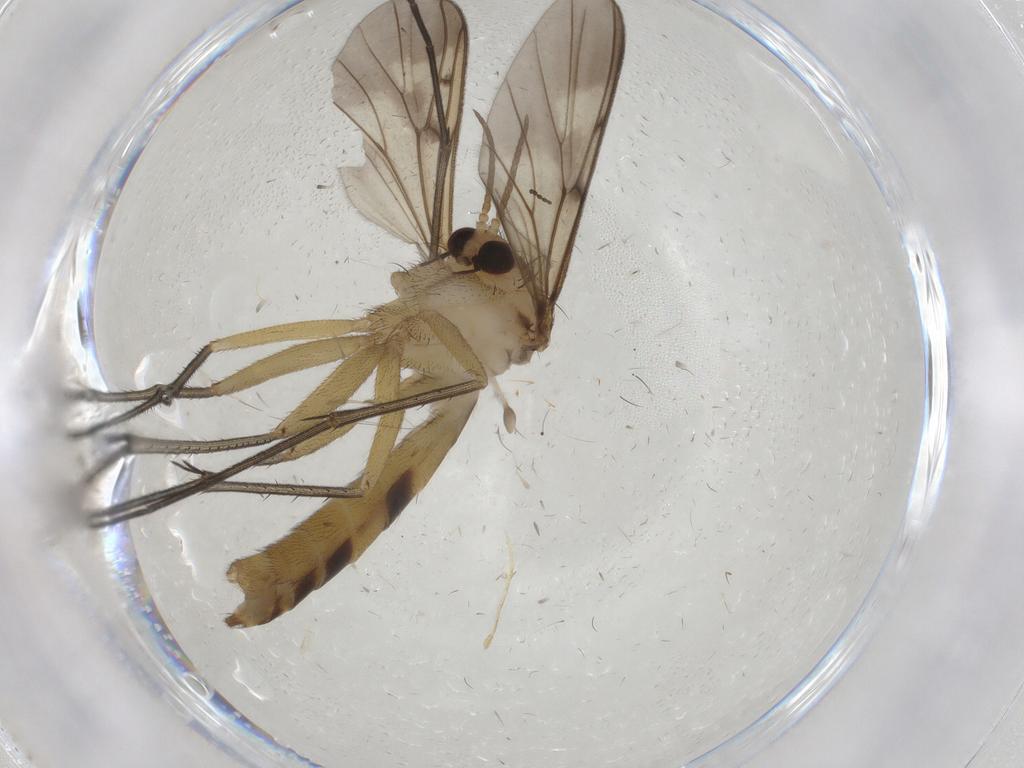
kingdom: Animalia
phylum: Arthropoda
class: Insecta
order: Diptera
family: Sciaridae
